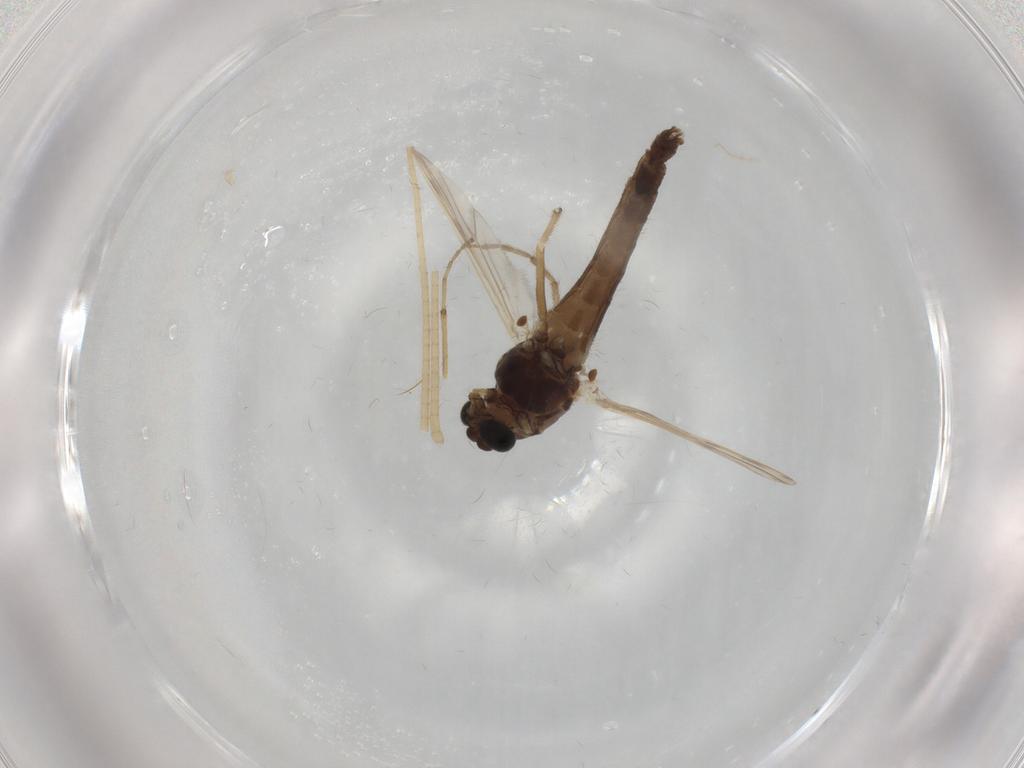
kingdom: Animalia
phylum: Arthropoda
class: Insecta
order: Diptera
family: Chironomidae
